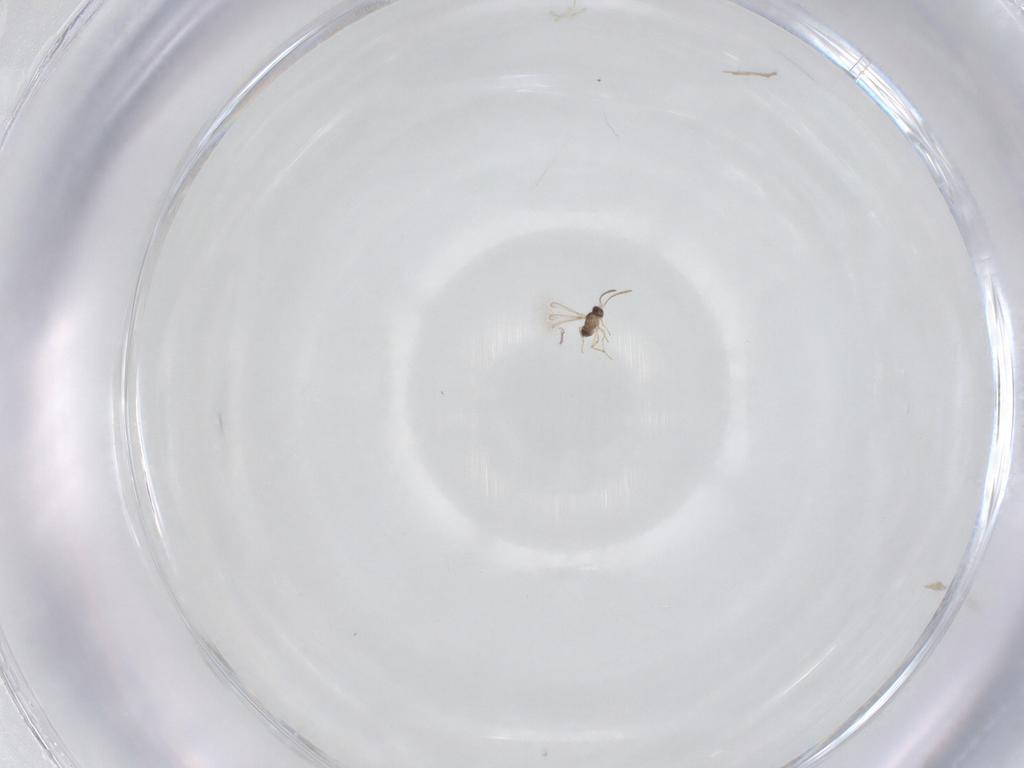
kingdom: Animalia
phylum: Arthropoda
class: Insecta
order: Hymenoptera
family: Mymaridae
